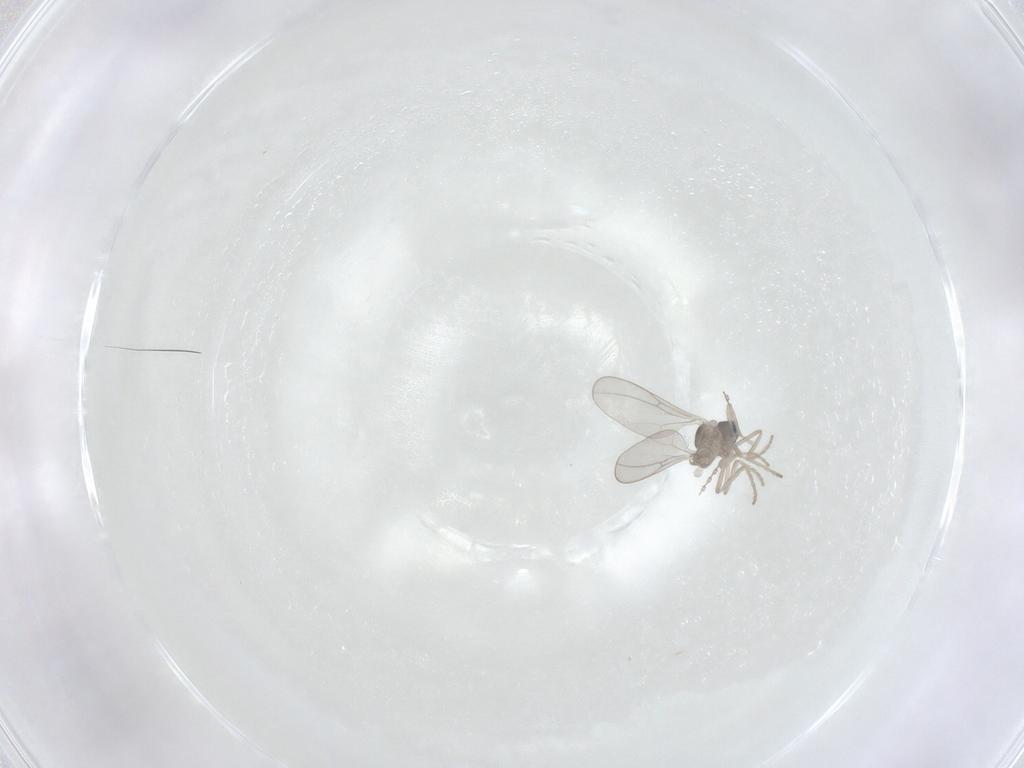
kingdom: Animalia
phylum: Arthropoda
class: Insecta
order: Diptera
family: Cecidomyiidae
